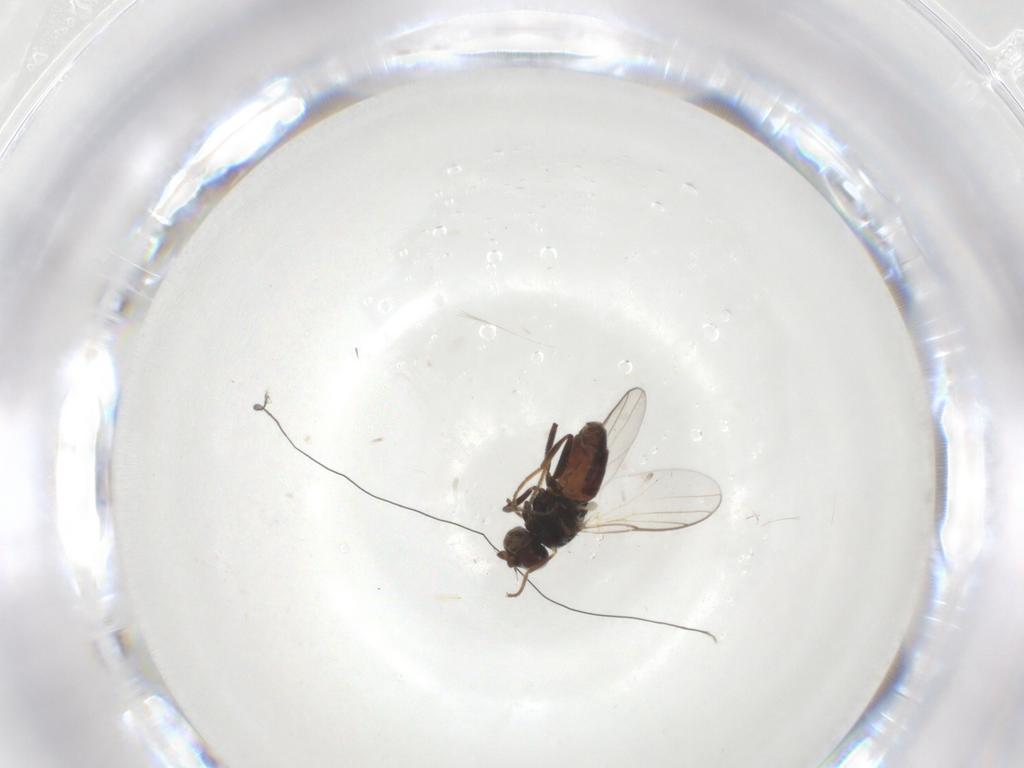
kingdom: Animalia
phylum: Arthropoda
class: Insecta
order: Diptera
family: Chloropidae
